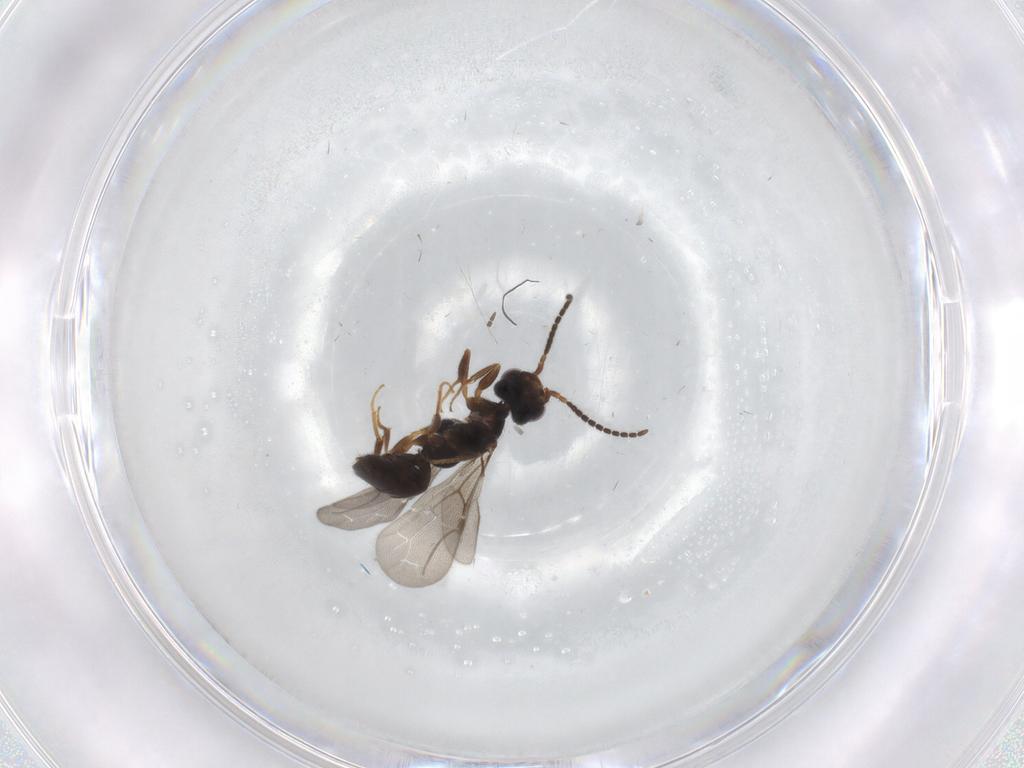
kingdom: Animalia
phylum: Arthropoda
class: Insecta
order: Hymenoptera
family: Bethylidae
